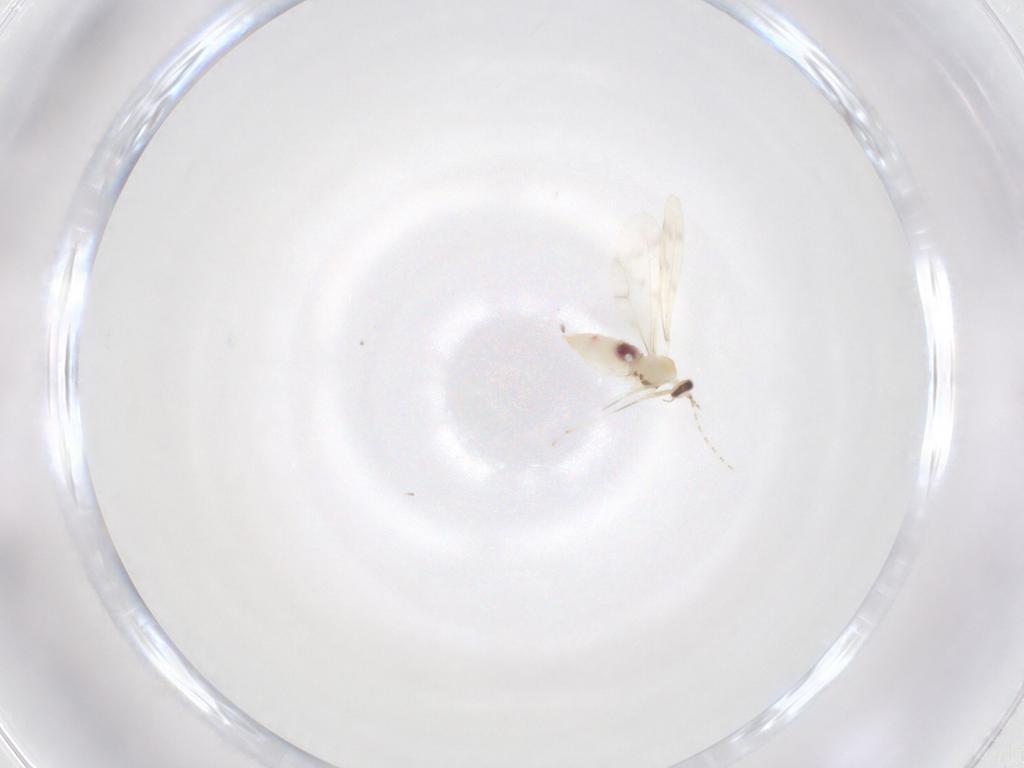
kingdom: Animalia
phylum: Arthropoda
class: Insecta
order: Diptera
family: Cecidomyiidae
